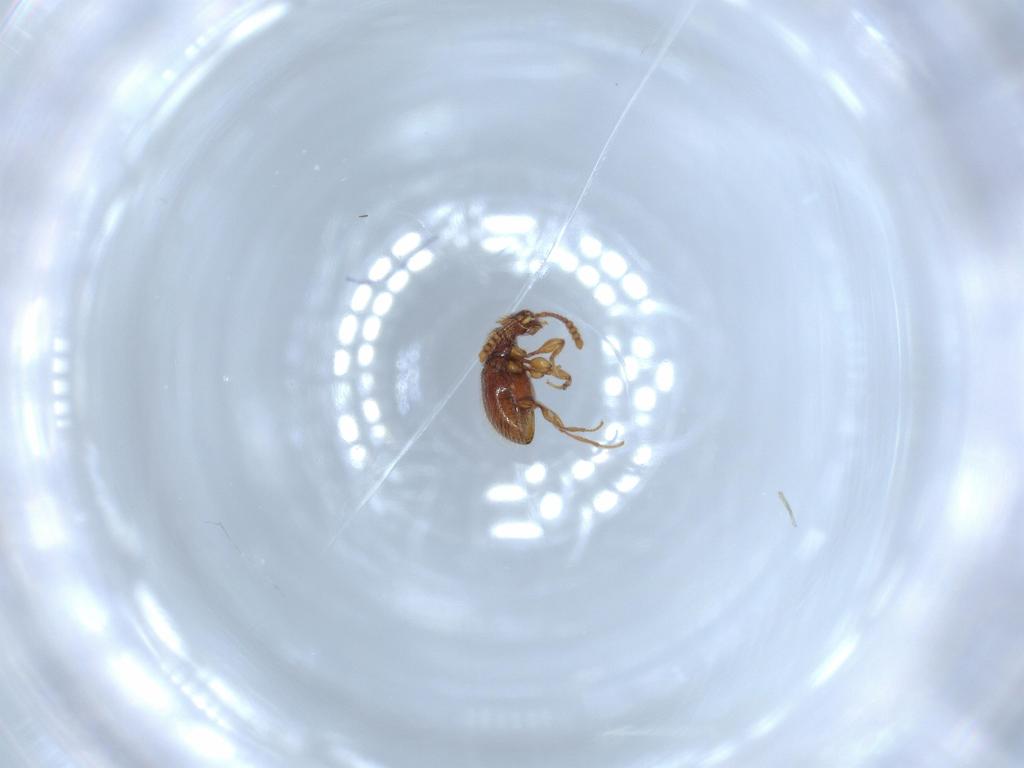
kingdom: Animalia
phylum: Arthropoda
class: Insecta
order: Coleoptera
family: Staphylinidae
